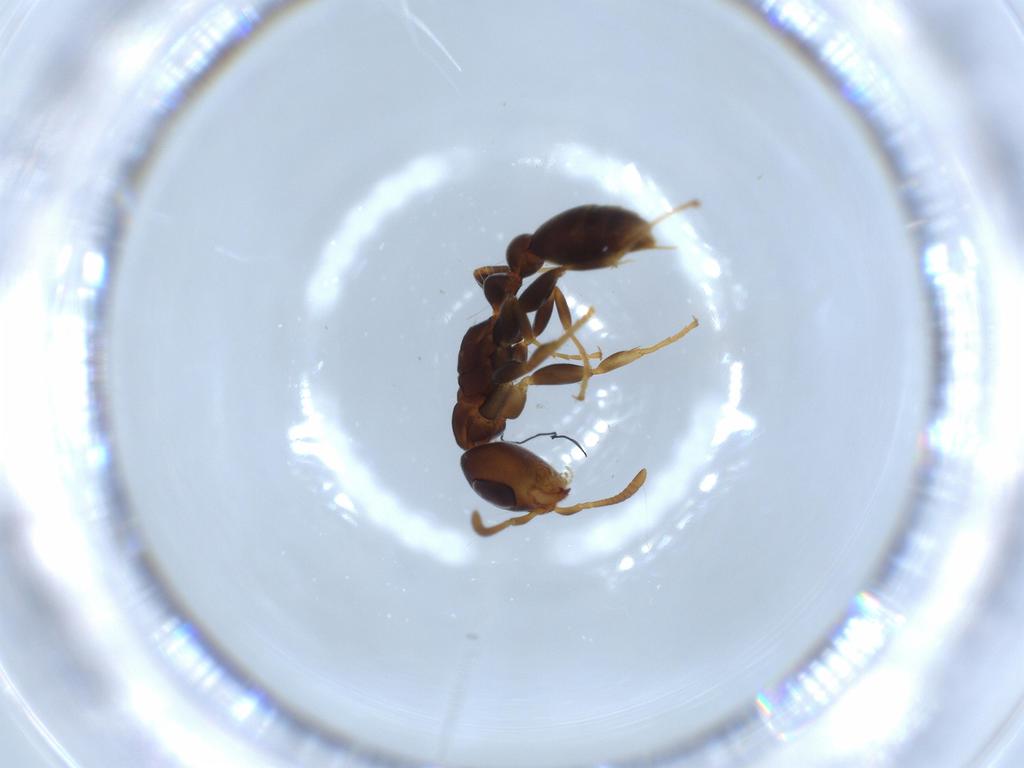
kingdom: Animalia
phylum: Arthropoda
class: Insecta
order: Hymenoptera
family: Formicidae
